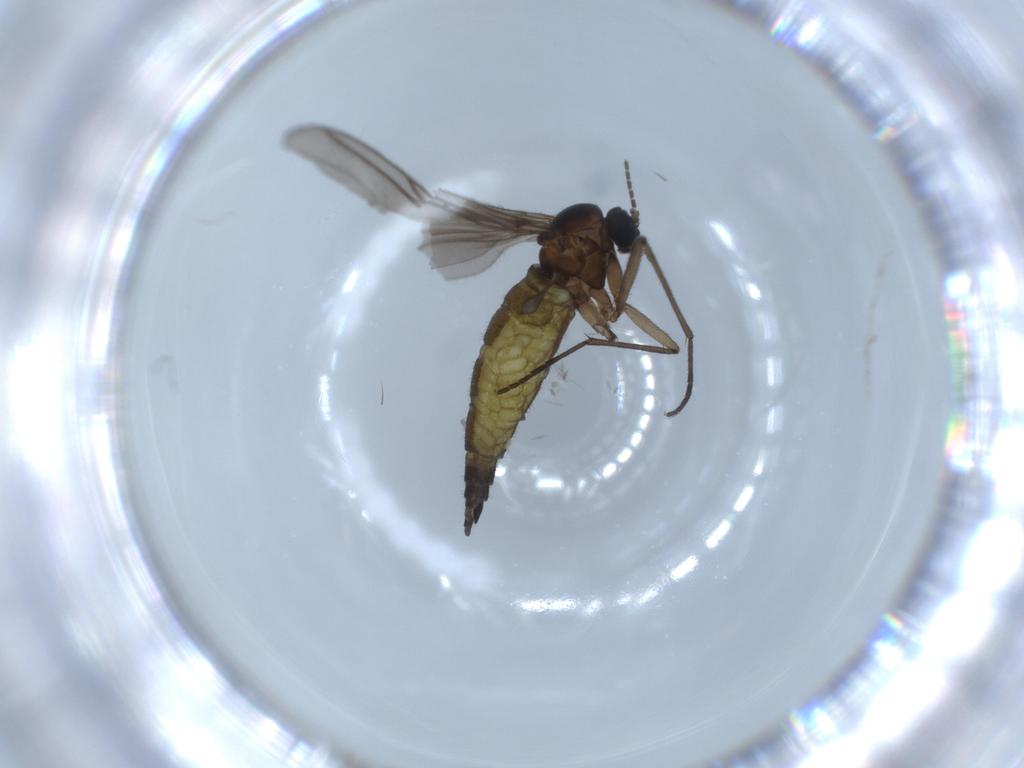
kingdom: Animalia
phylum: Arthropoda
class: Insecta
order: Diptera
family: Sciaridae
